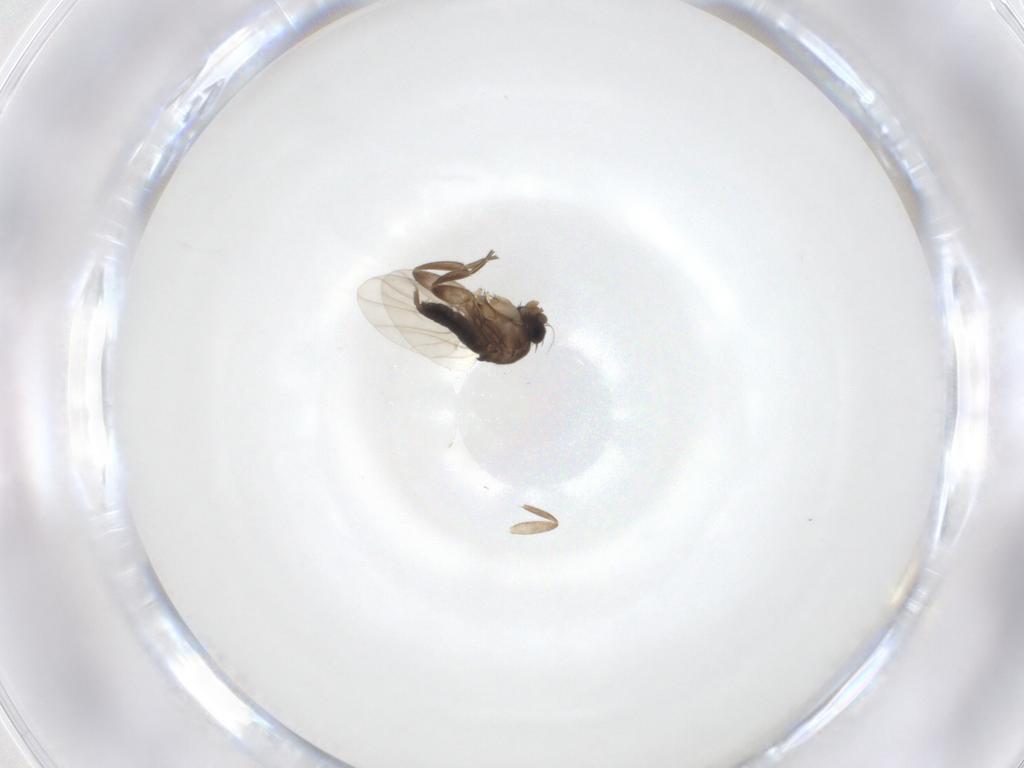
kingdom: Animalia
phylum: Arthropoda
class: Insecta
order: Diptera
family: Phoridae
